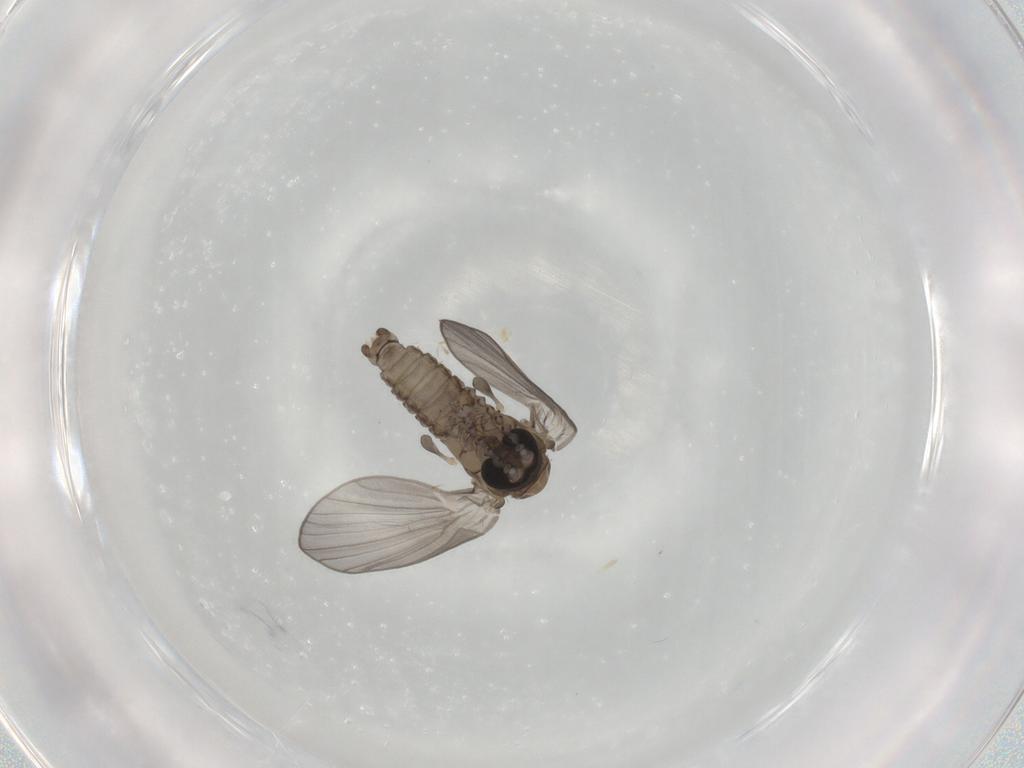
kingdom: Animalia
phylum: Arthropoda
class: Insecta
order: Diptera
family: Psychodidae
